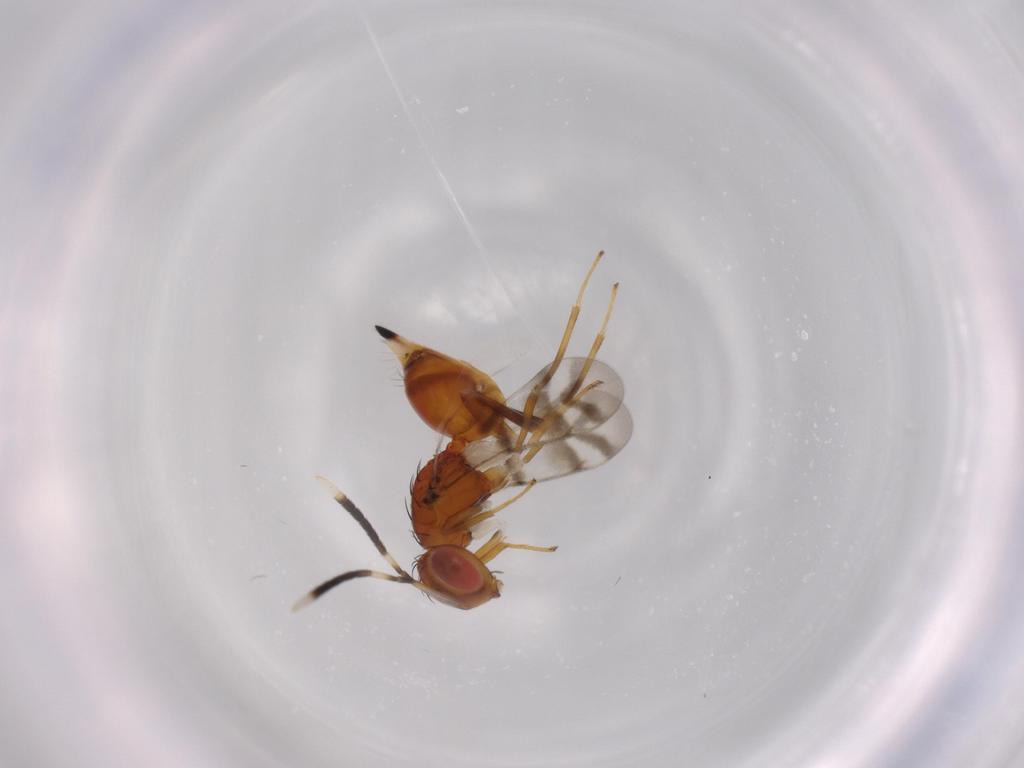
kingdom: Animalia
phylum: Arthropoda
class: Insecta
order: Hymenoptera
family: Diparidae
